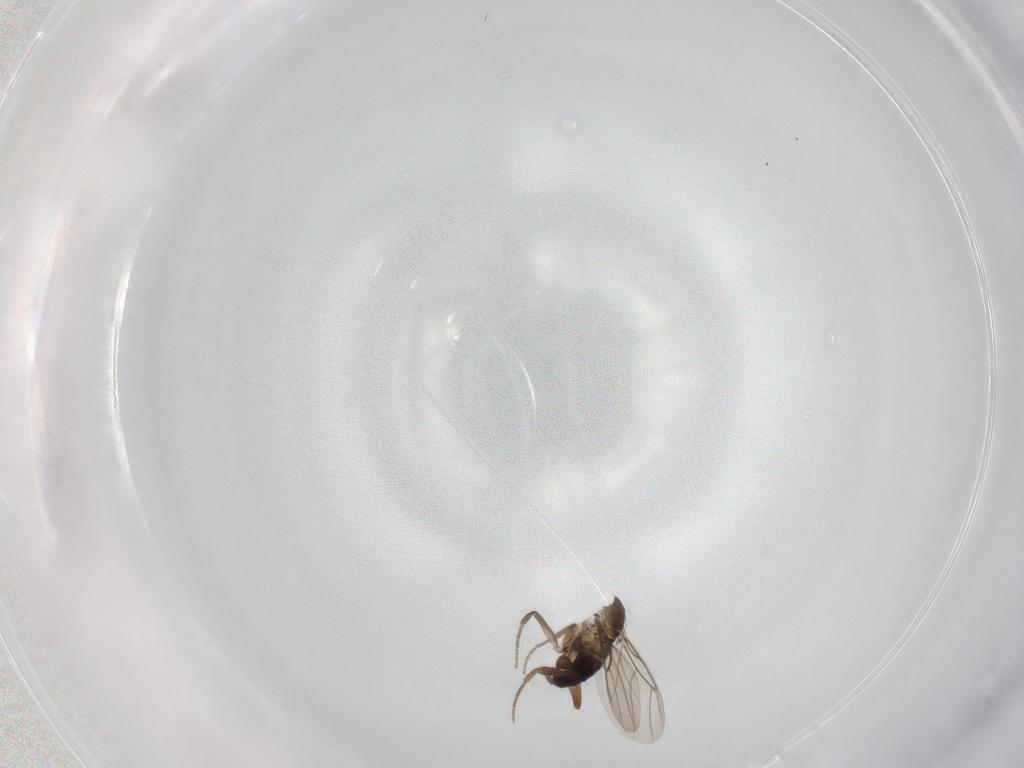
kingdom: Animalia
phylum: Arthropoda
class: Insecta
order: Diptera
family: Phoridae
